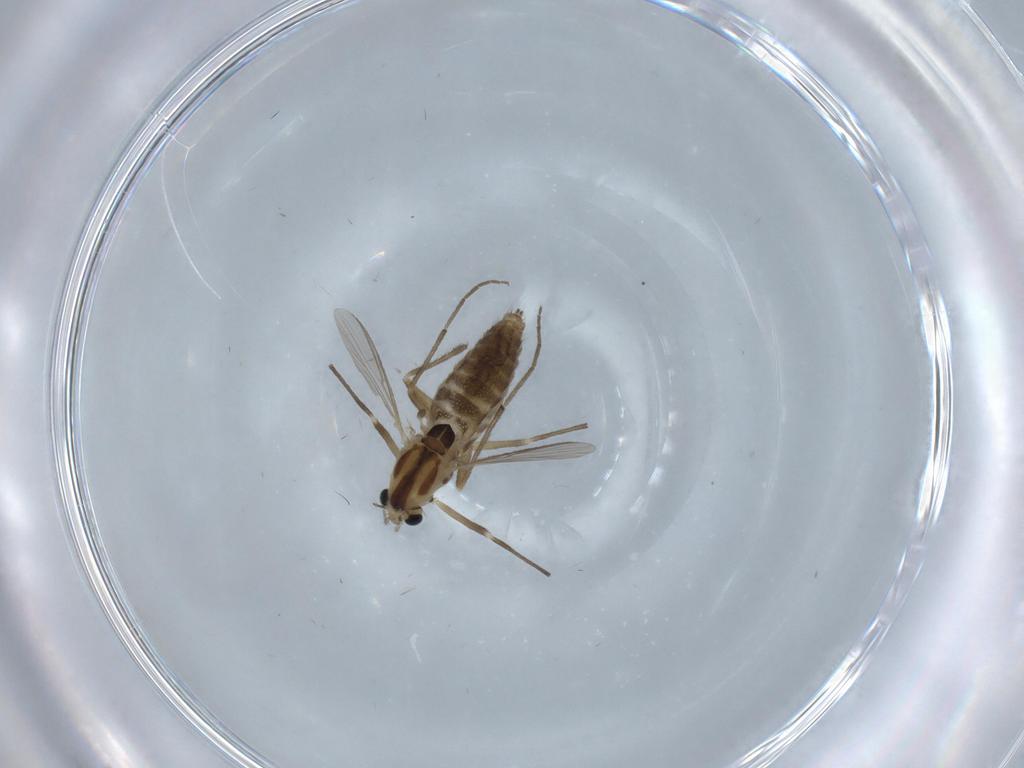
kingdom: Animalia
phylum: Arthropoda
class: Insecta
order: Diptera
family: Chironomidae
